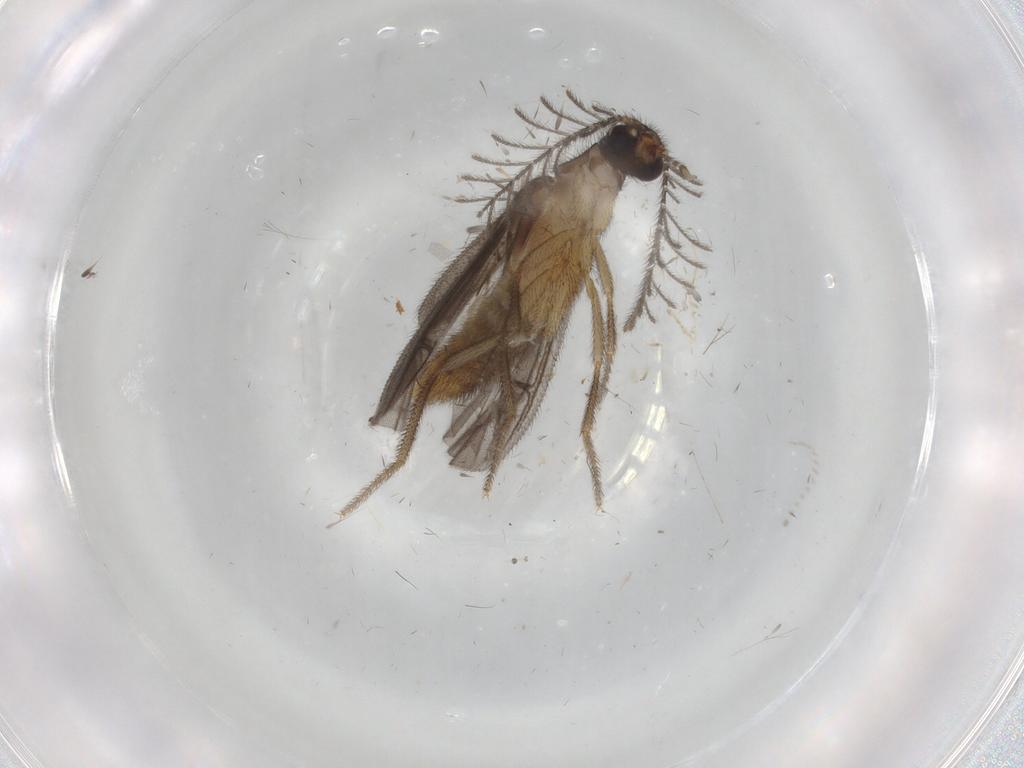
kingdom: Animalia
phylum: Arthropoda
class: Insecta
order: Coleoptera
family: Phengodidae
